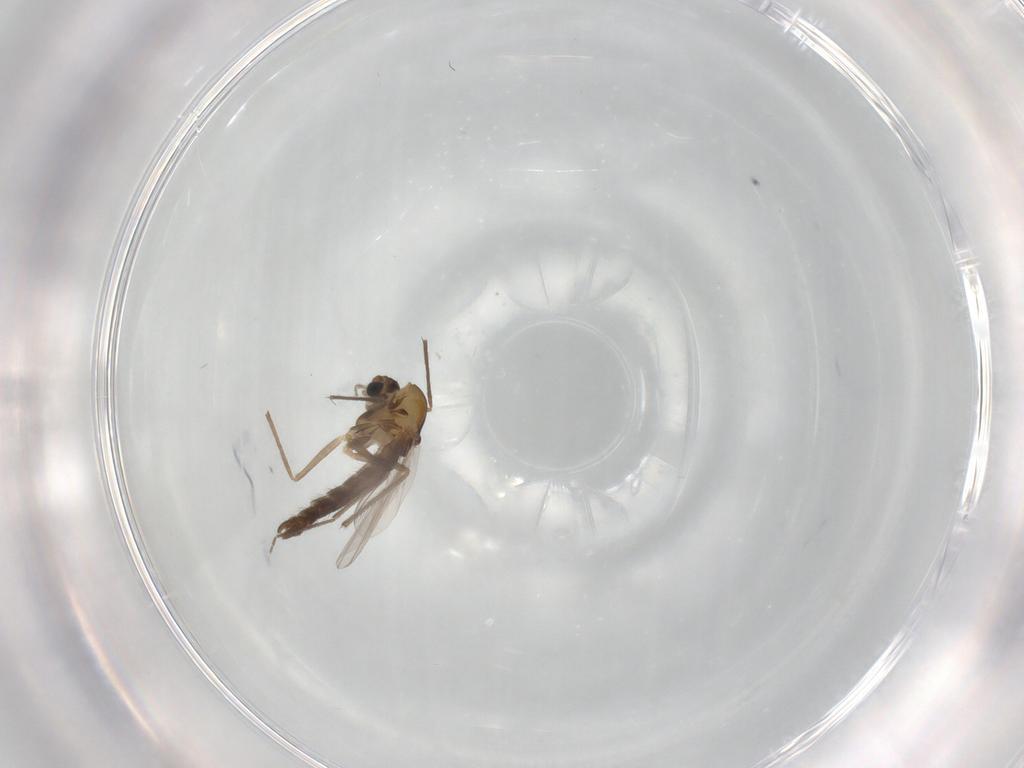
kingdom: Animalia
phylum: Arthropoda
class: Insecta
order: Diptera
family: Chironomidae
